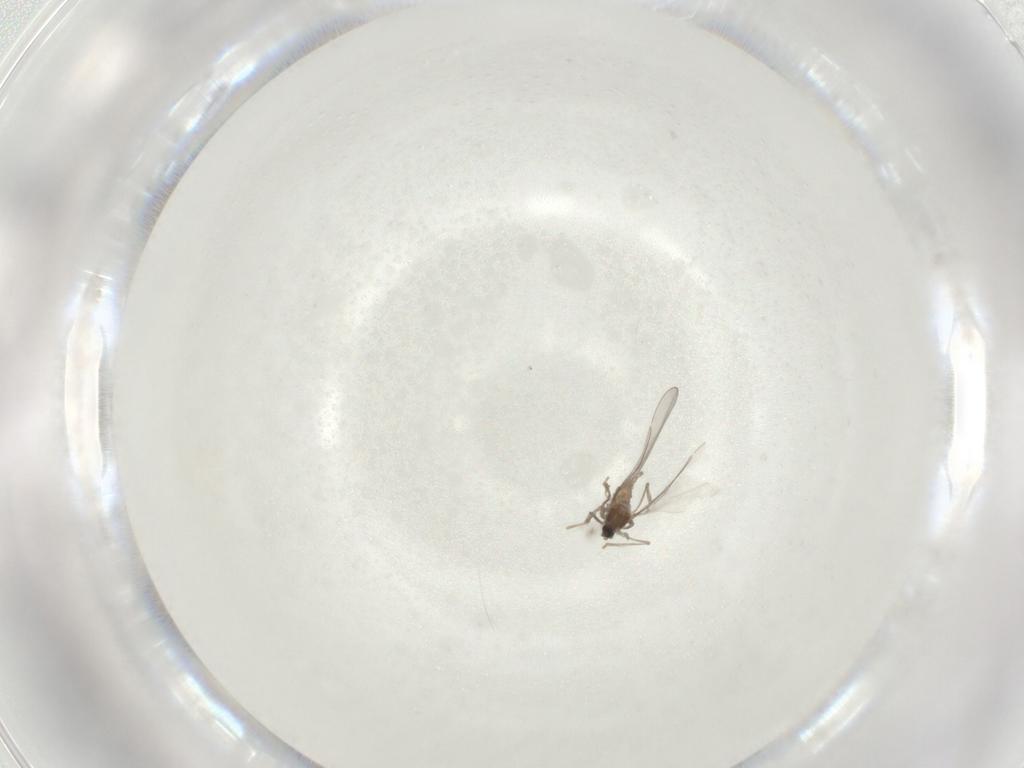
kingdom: Animalia
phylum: Arthropoda
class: Insecta
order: Diptera
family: Cecidomyiidae
